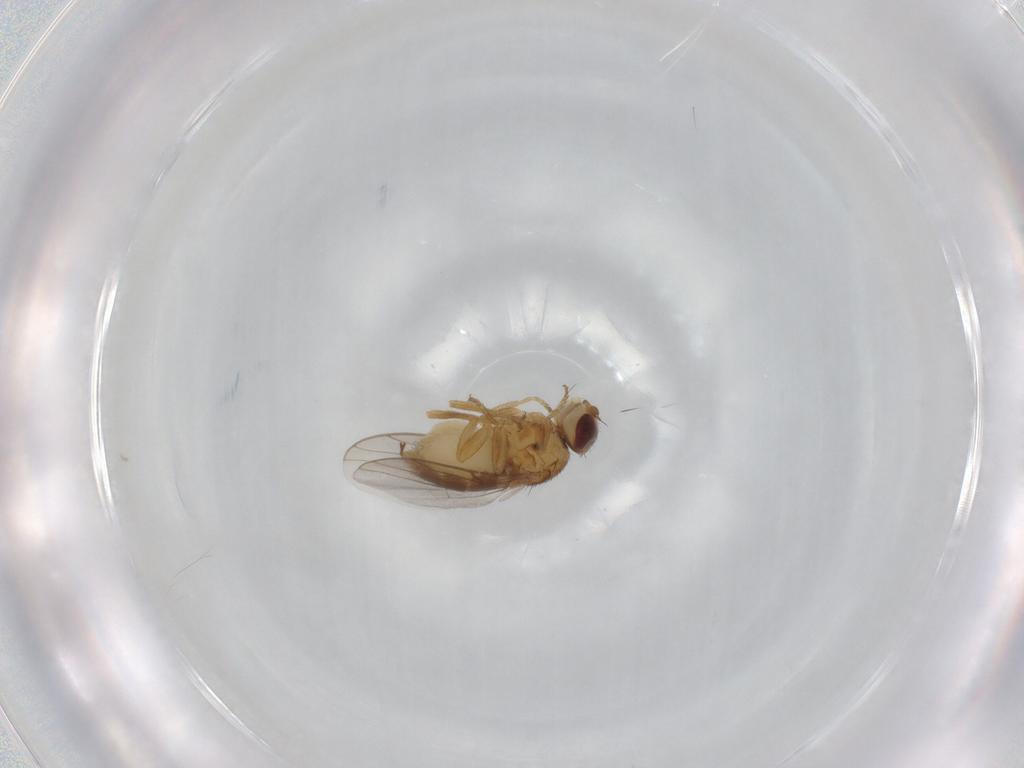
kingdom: Animalia
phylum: Arthropoda
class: Insecta
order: Diptera
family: Chloropidae
